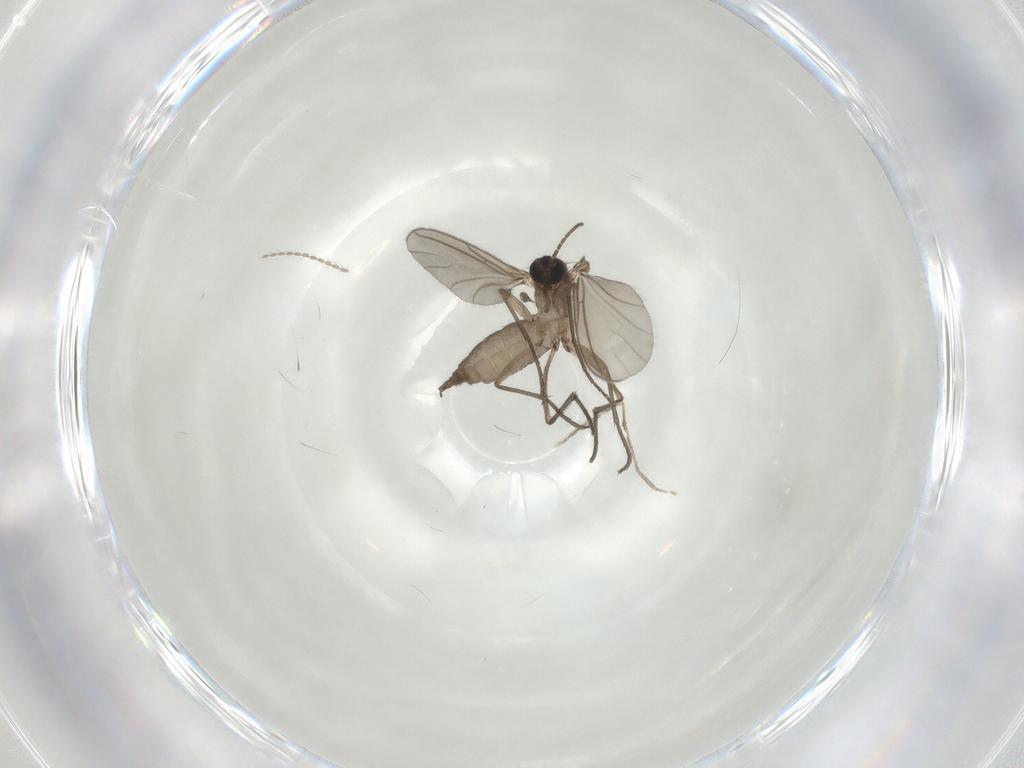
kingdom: Animalia
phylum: Arthropoda
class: Insecta
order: Diptera
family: Sciaridae
